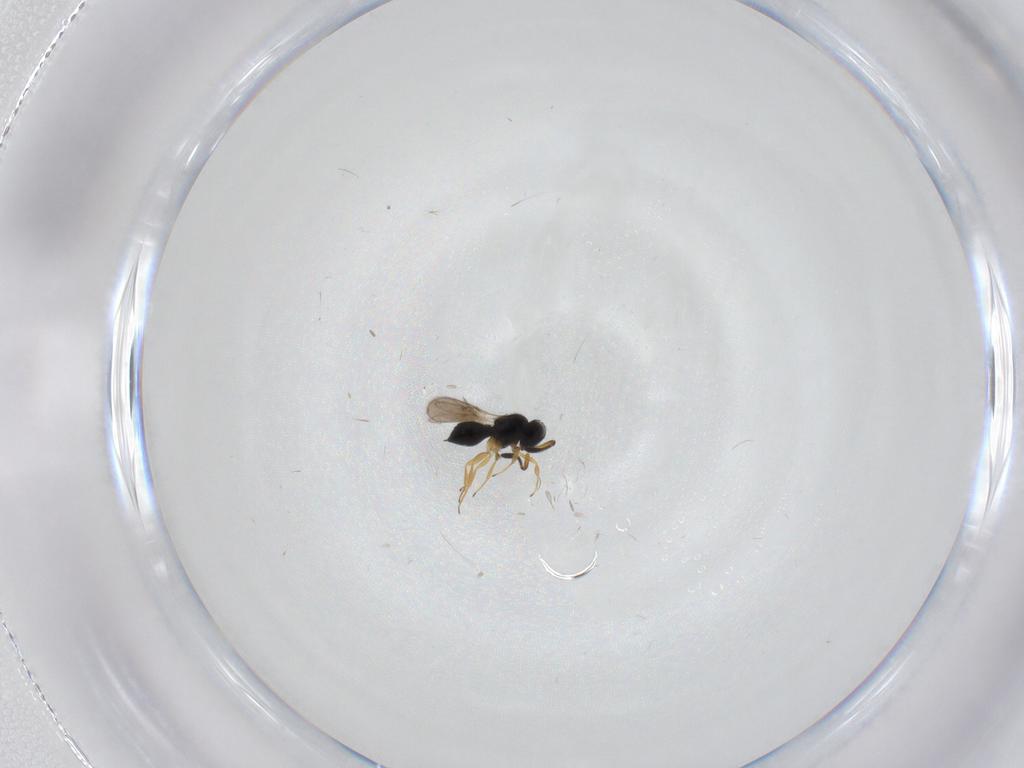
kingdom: Animalia
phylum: Arthropoda
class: Insecta
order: Hymenoptera
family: Scelionidae
